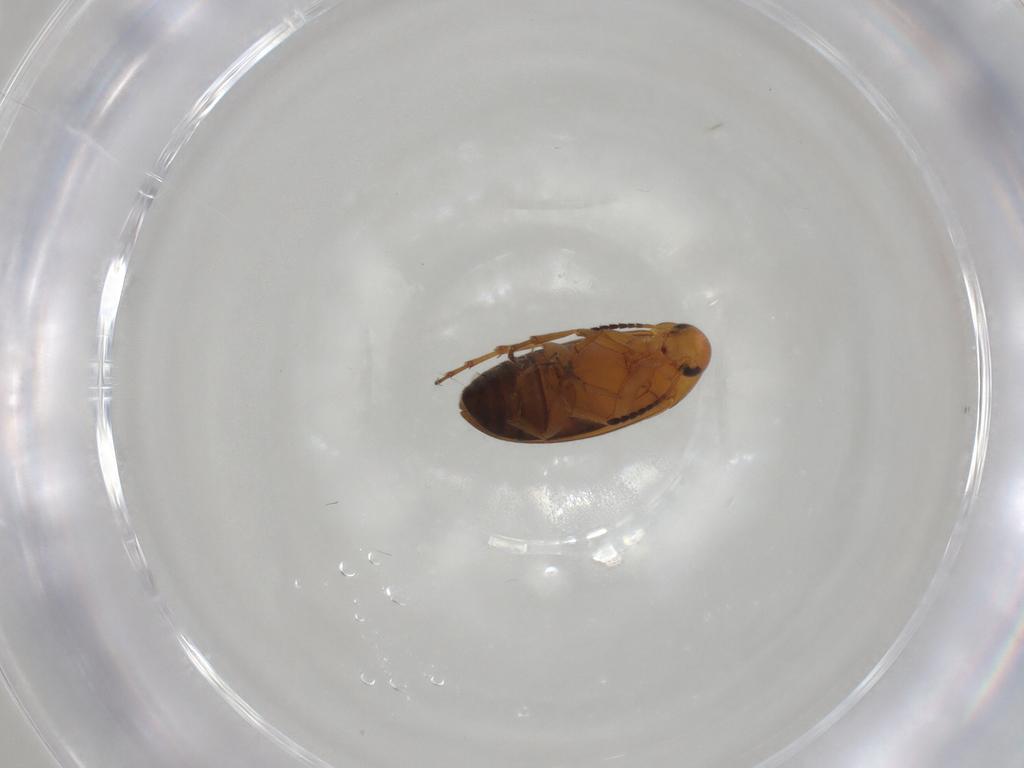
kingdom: Animalia
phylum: Arthropoda
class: Insecta
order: Coleoptera
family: Scraptiidae
